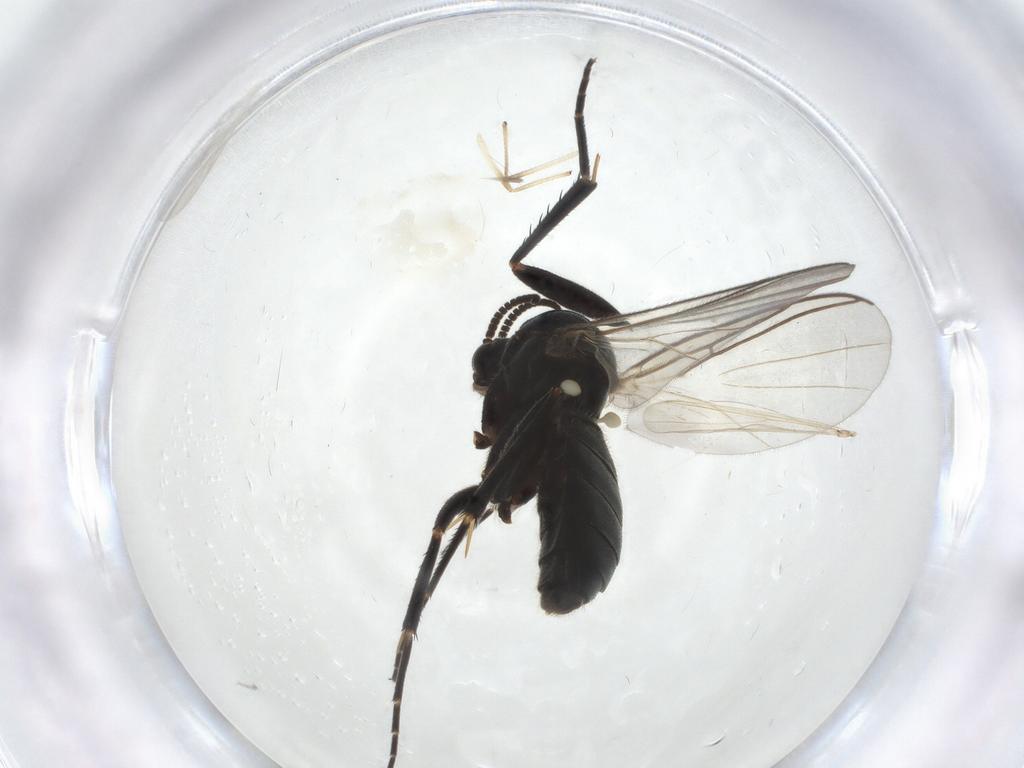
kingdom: Animalia
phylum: Arthropoda
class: Insecta
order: Diptera
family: Mycetophilidae
